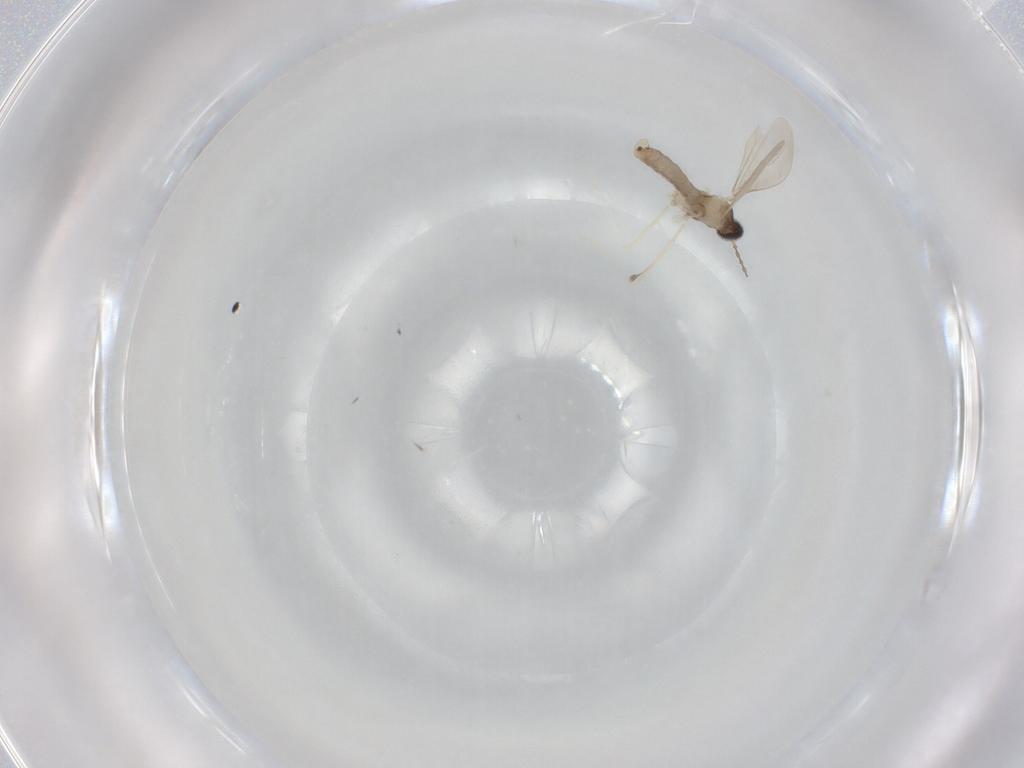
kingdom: Animalia
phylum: Arthropoda
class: Insecta
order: Diptera
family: Cecidomyiidae
